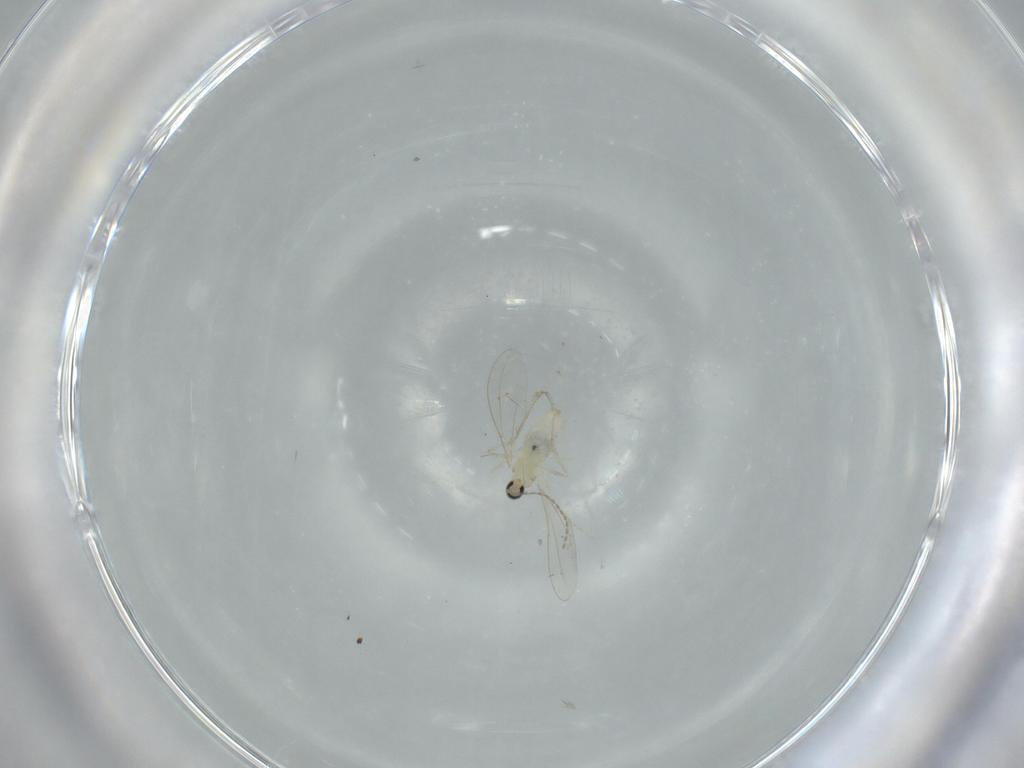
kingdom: Animalia
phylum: Arthropoda
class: Insecta
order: Diptera
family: Cecidomyiidae
